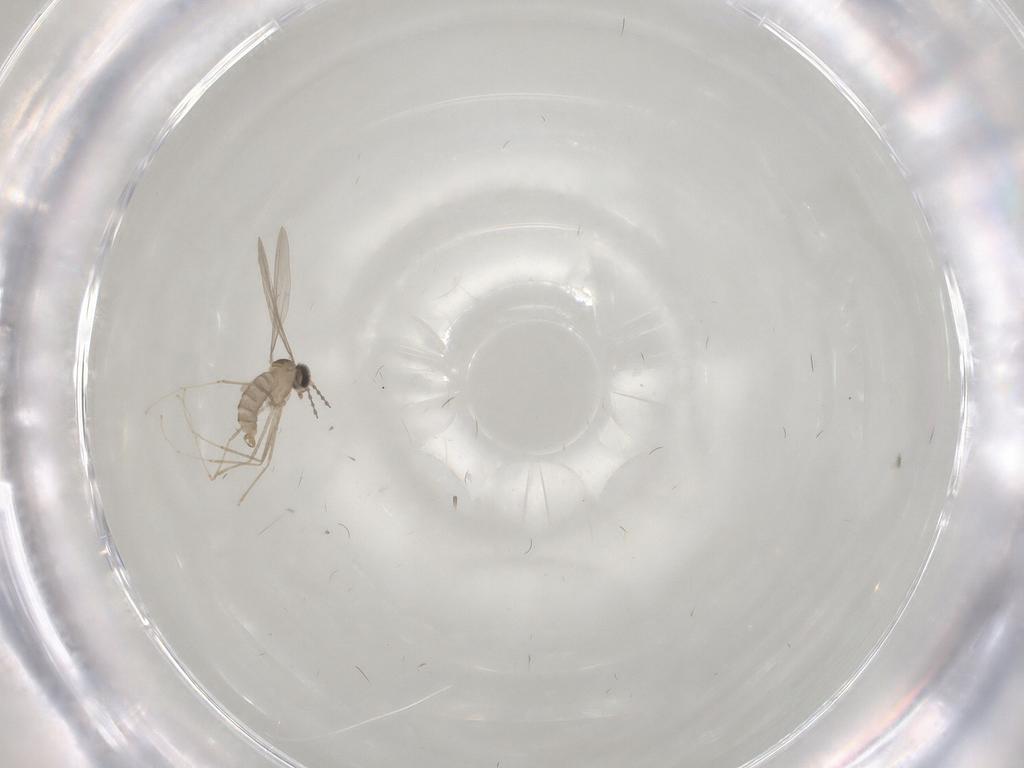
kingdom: Animalia
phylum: Arthropoda
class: Insecta
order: Diptera
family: Cecidomyiidae
